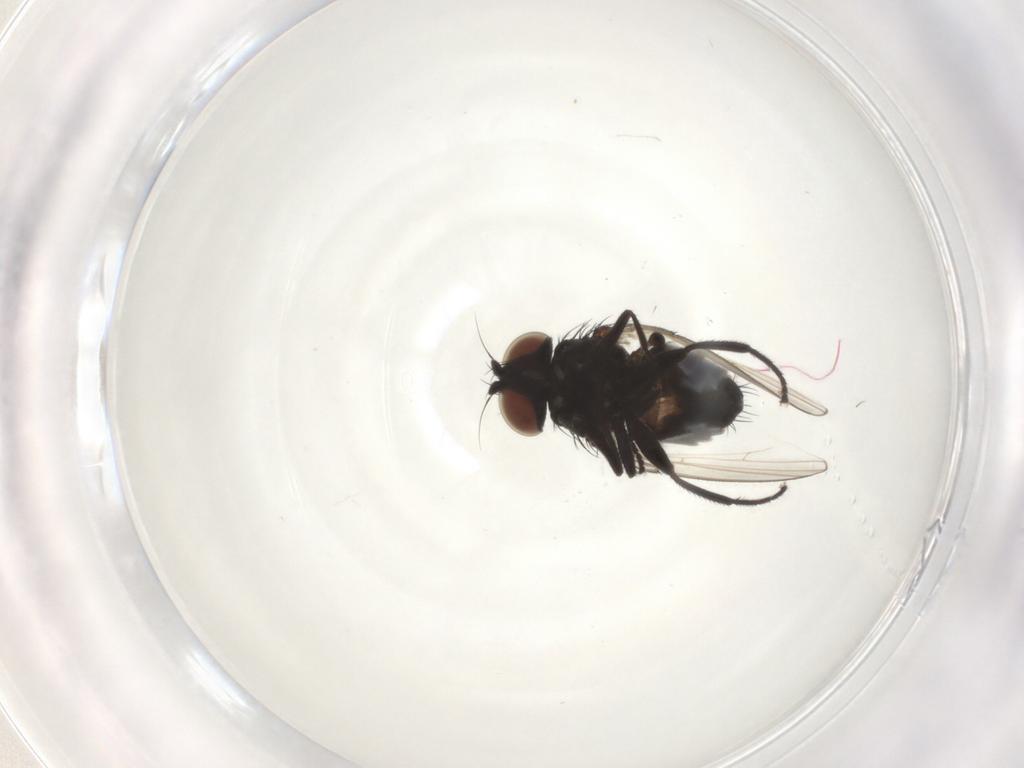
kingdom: Animalia
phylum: Arthropoda
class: Insecta
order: Diptera
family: Milichiidae
